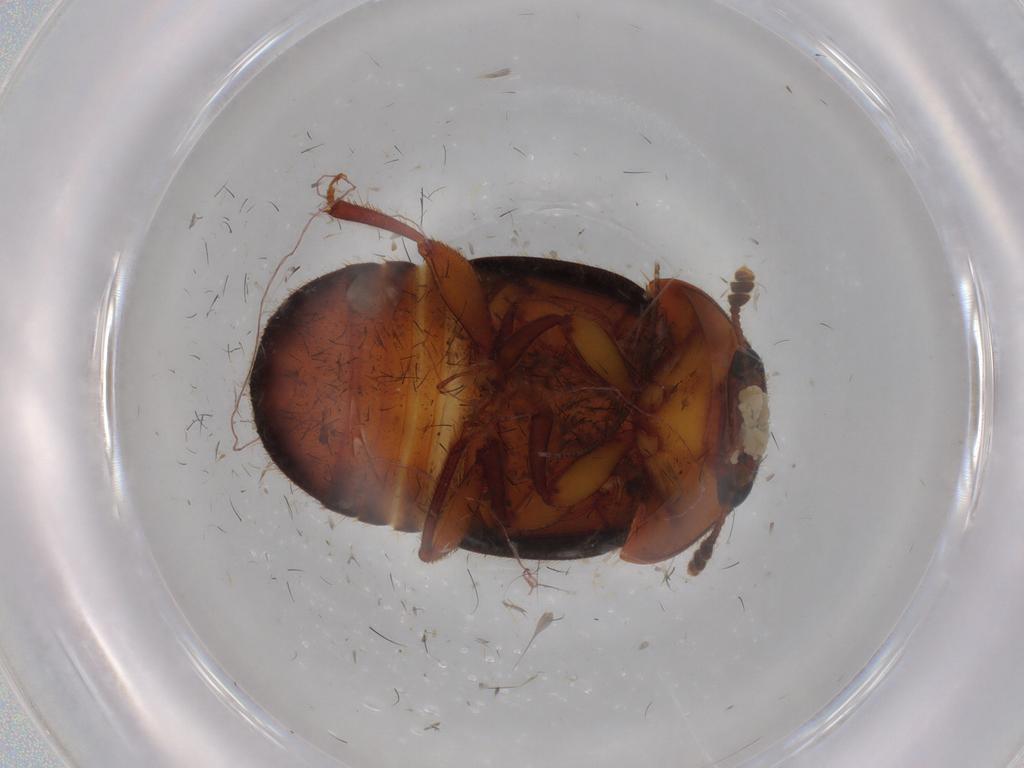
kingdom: Animalia
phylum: Arthropoda
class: Insecta
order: Coleoptera
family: Nitidulidae
